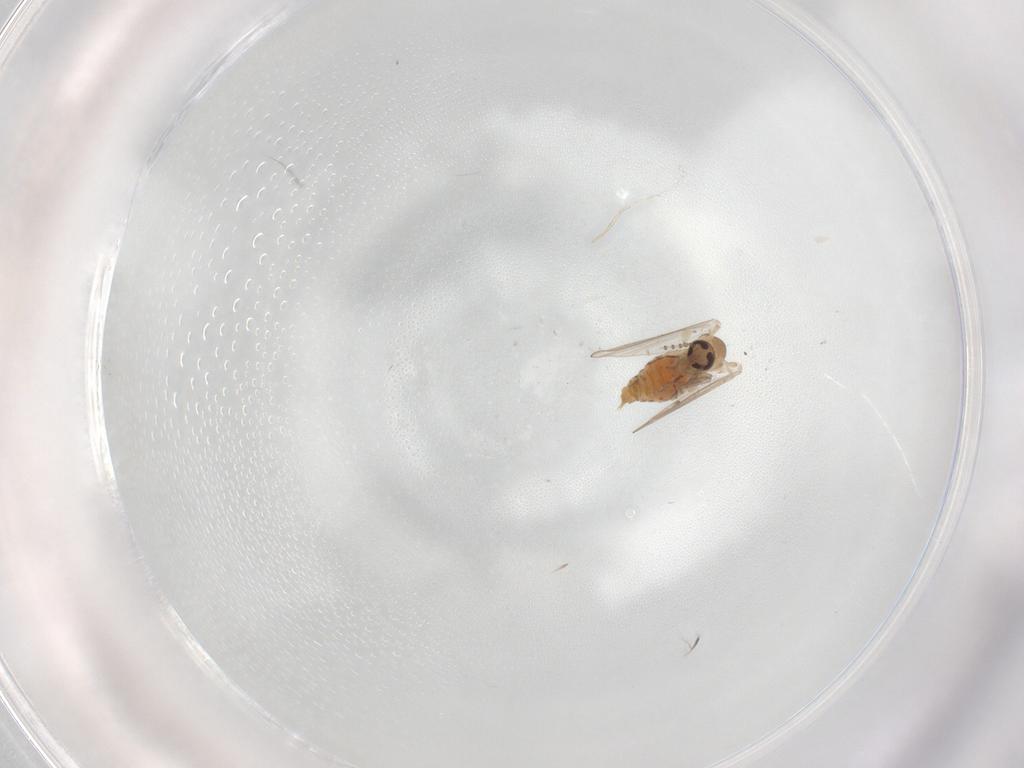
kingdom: Animalia
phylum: Arthropoda
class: Insecta
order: Diptera
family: Psychodidae
